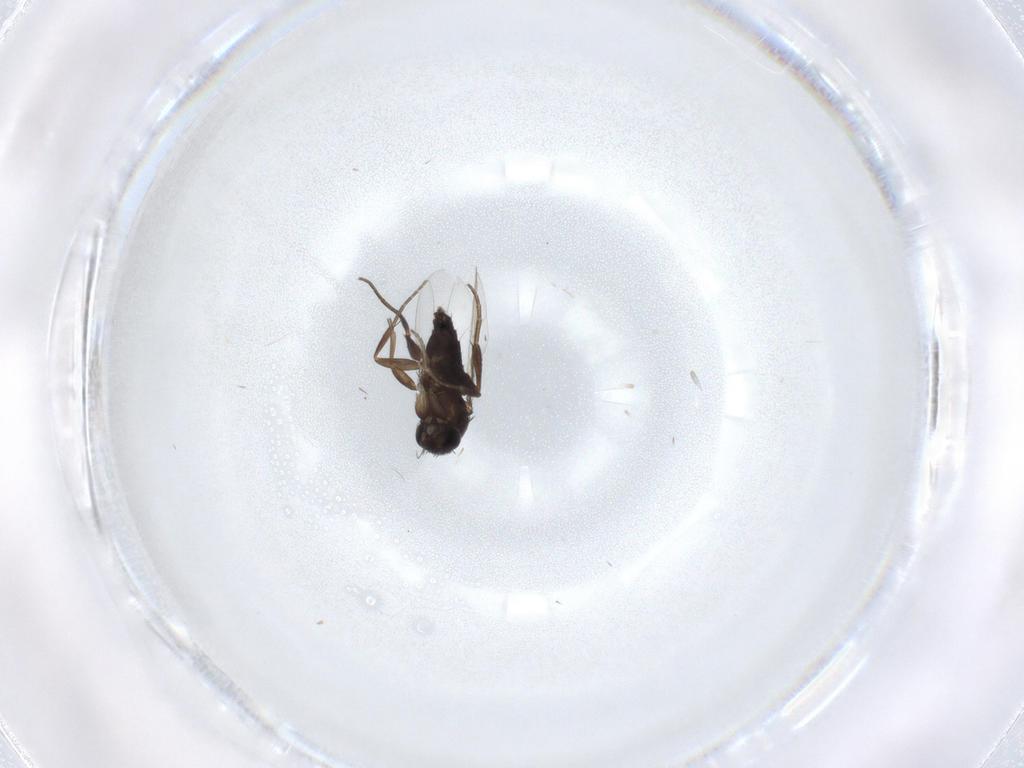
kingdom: Animalia
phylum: Arthropoda
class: Insecta
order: Diptera
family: Phoridae
